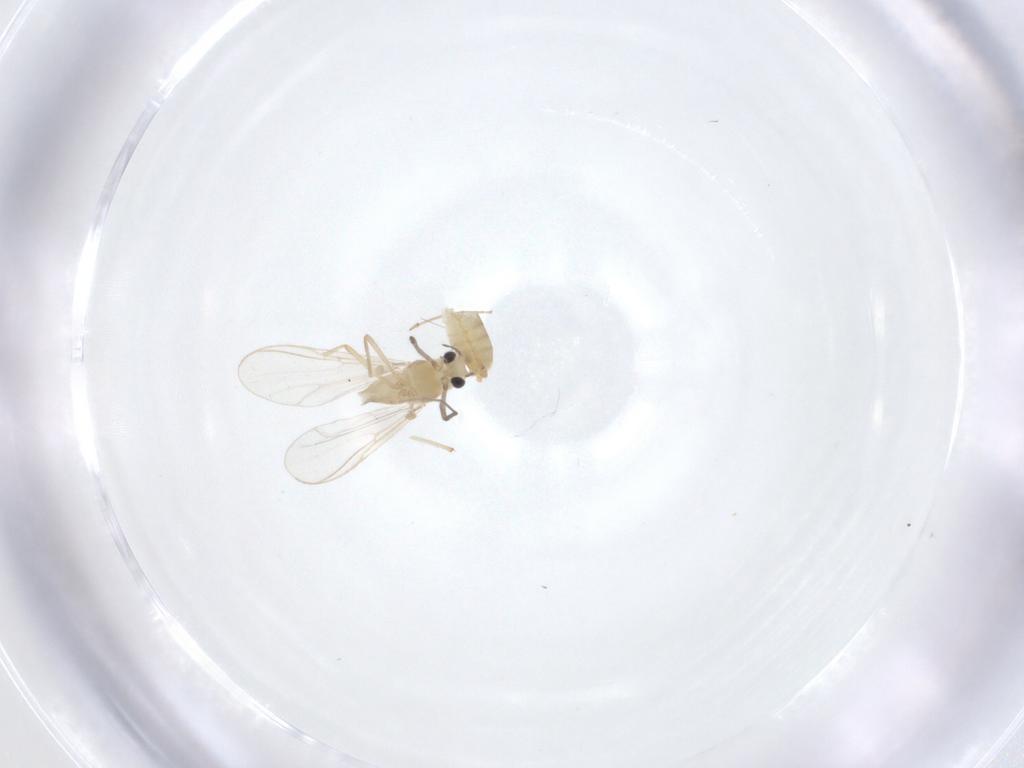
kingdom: Animalia
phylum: Arthropoda
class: Insecta
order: Diptera
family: Chironomidae
